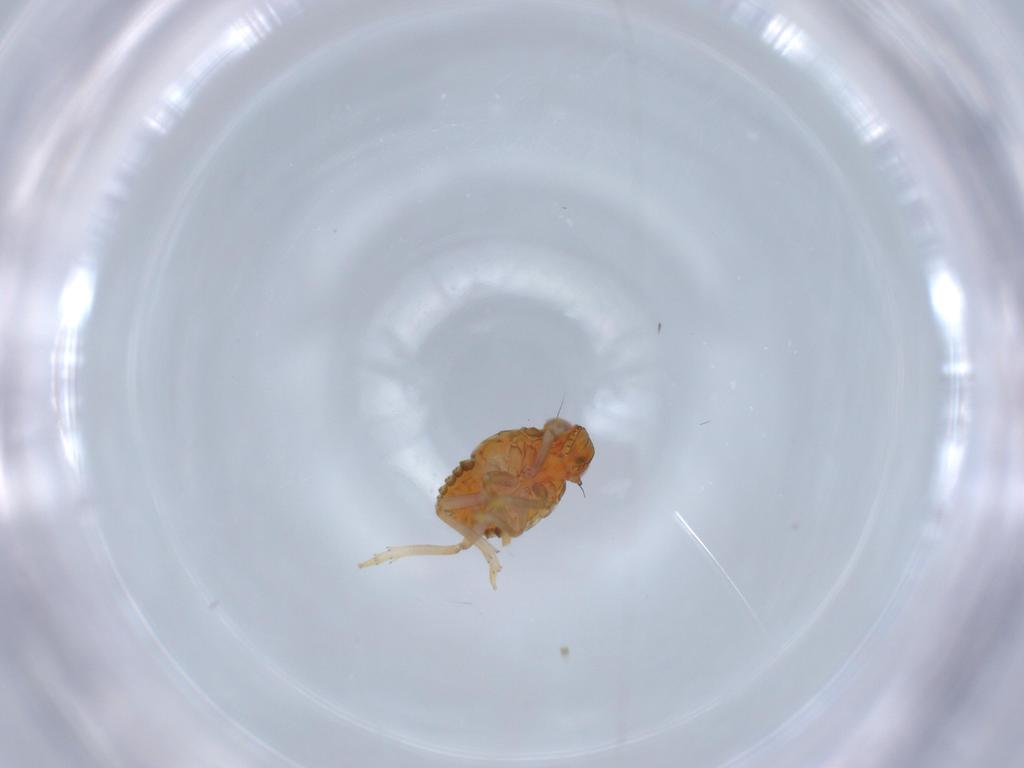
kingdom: Animalia
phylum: Arthropoda
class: Insecta
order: Hemiptera
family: Issidae
